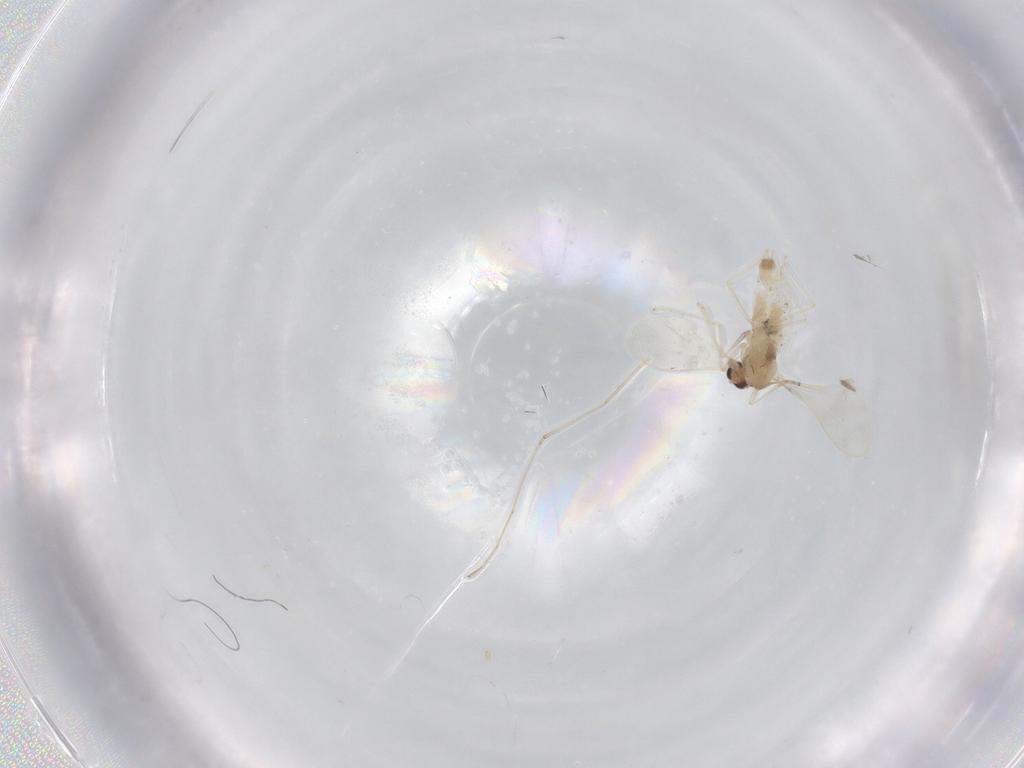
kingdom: Animalia
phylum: Arthropoda
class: Insecta
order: Diptera
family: Cecidomyiidae
